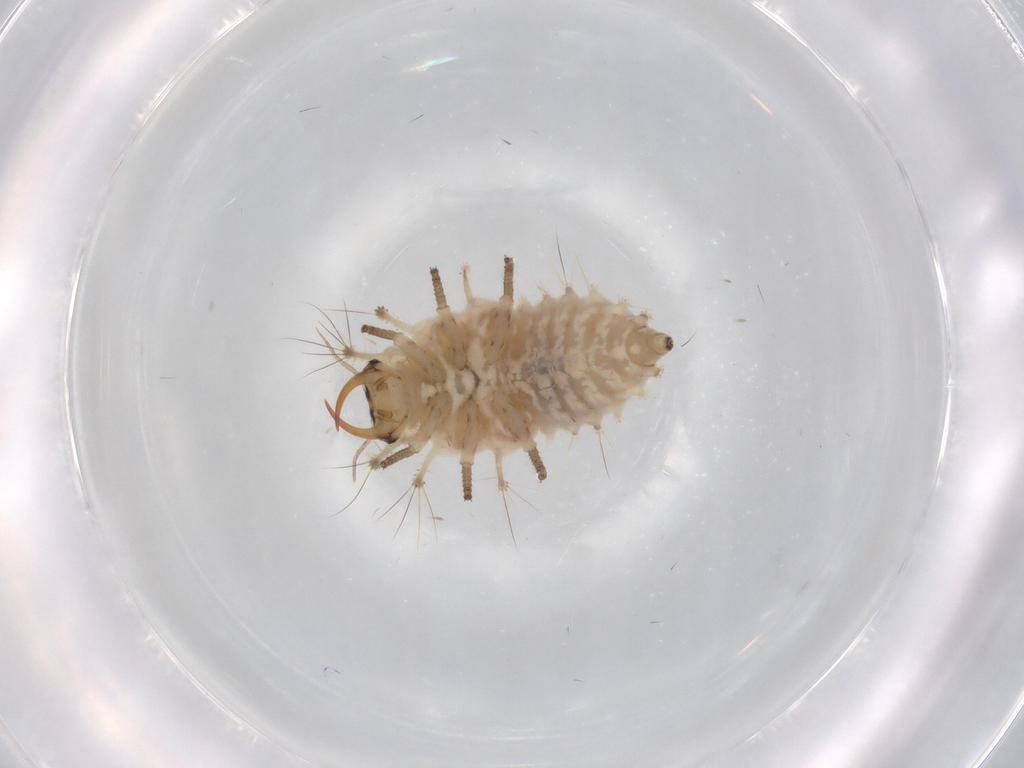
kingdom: Animalia
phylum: Arthropoda
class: Insecta
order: Neuroptera
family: Chrysopidae
